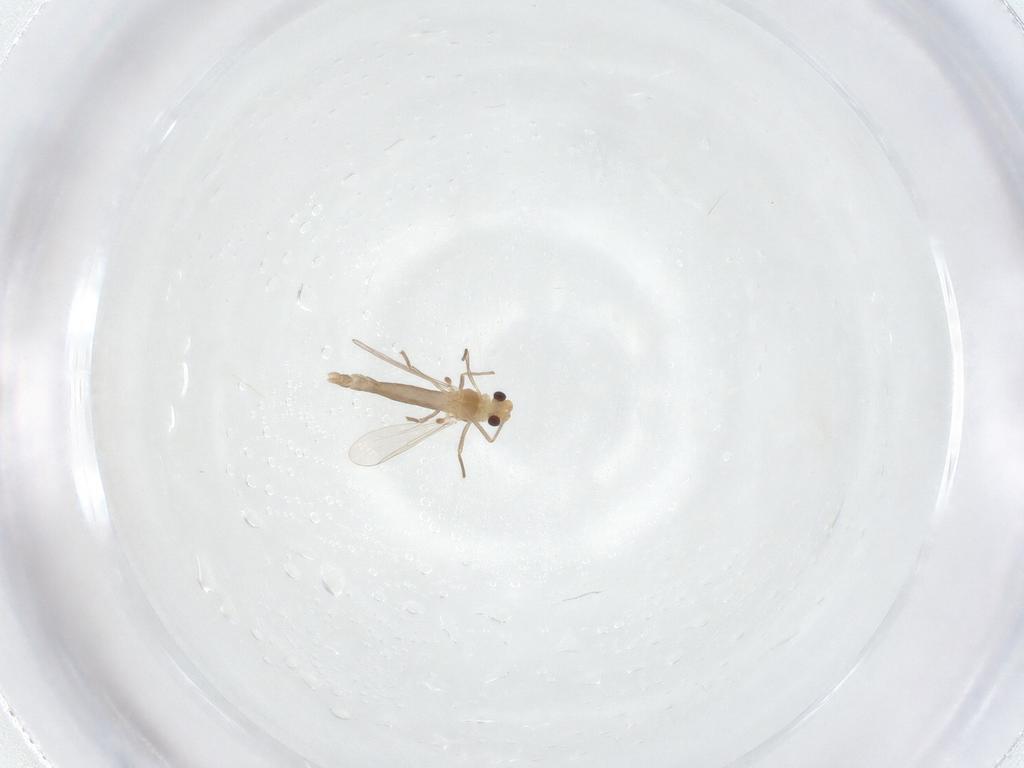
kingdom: Animalia
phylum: Arthropoda
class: Insecta
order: Diptera
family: Chironomidae
